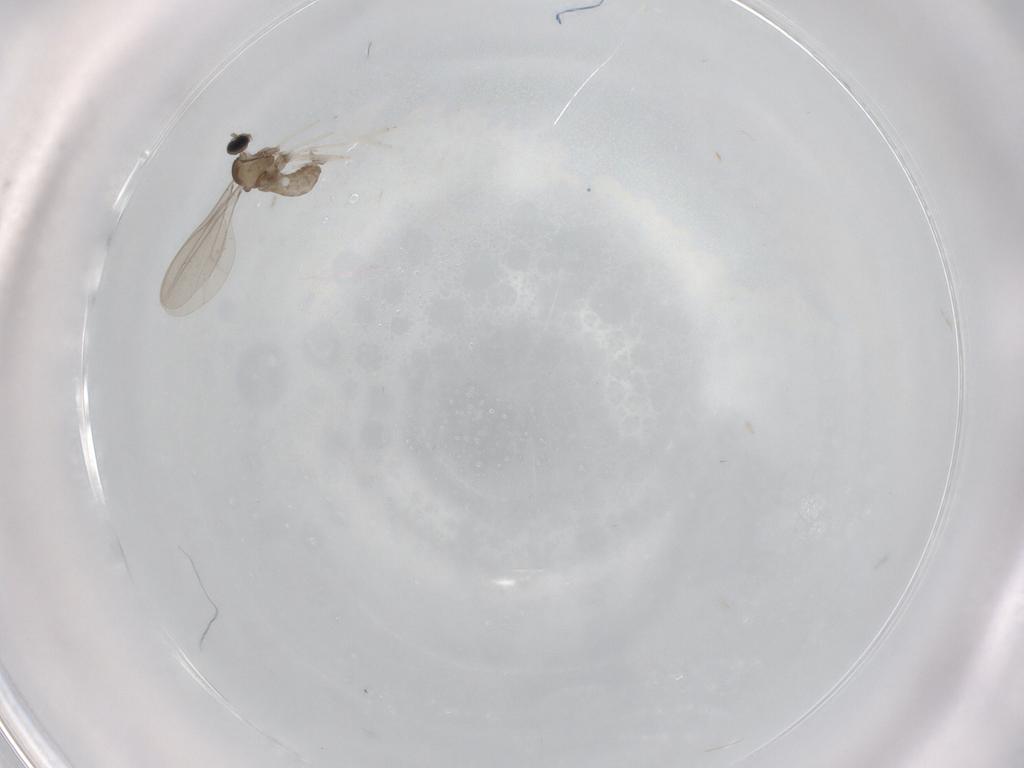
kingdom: Animalia
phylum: Arthropoda
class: Insecta
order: Diptera
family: Cecidomyiidae
